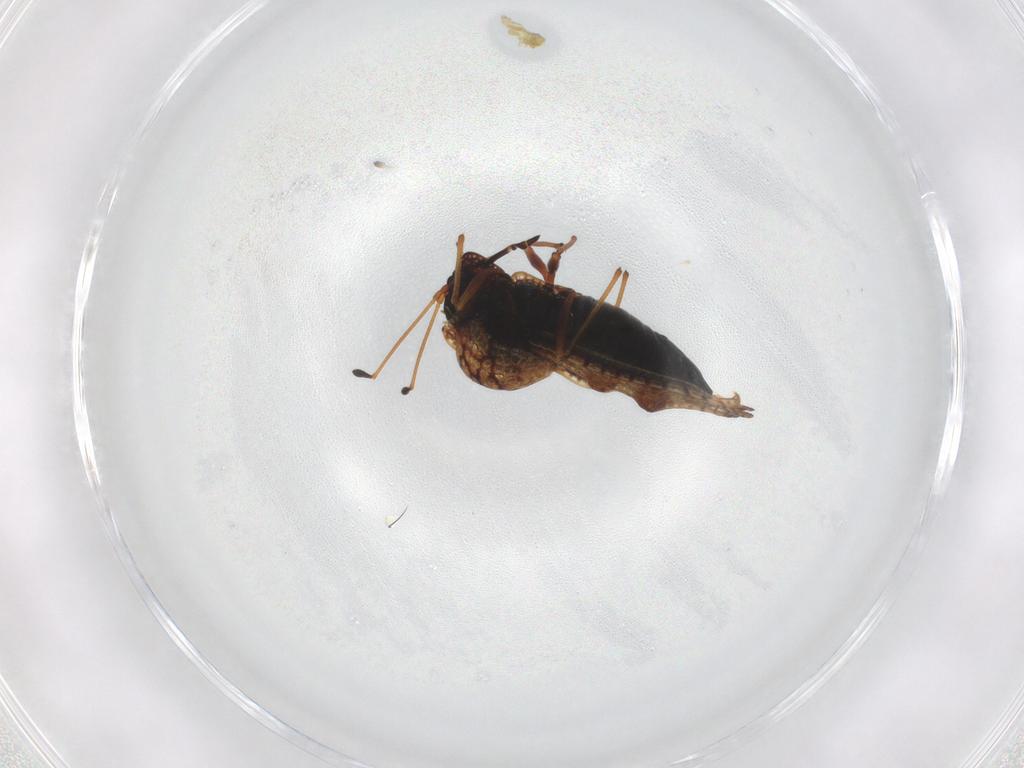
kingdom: Animalia
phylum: Arthropoda
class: Insecta
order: Hemiptera
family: Tingidae
